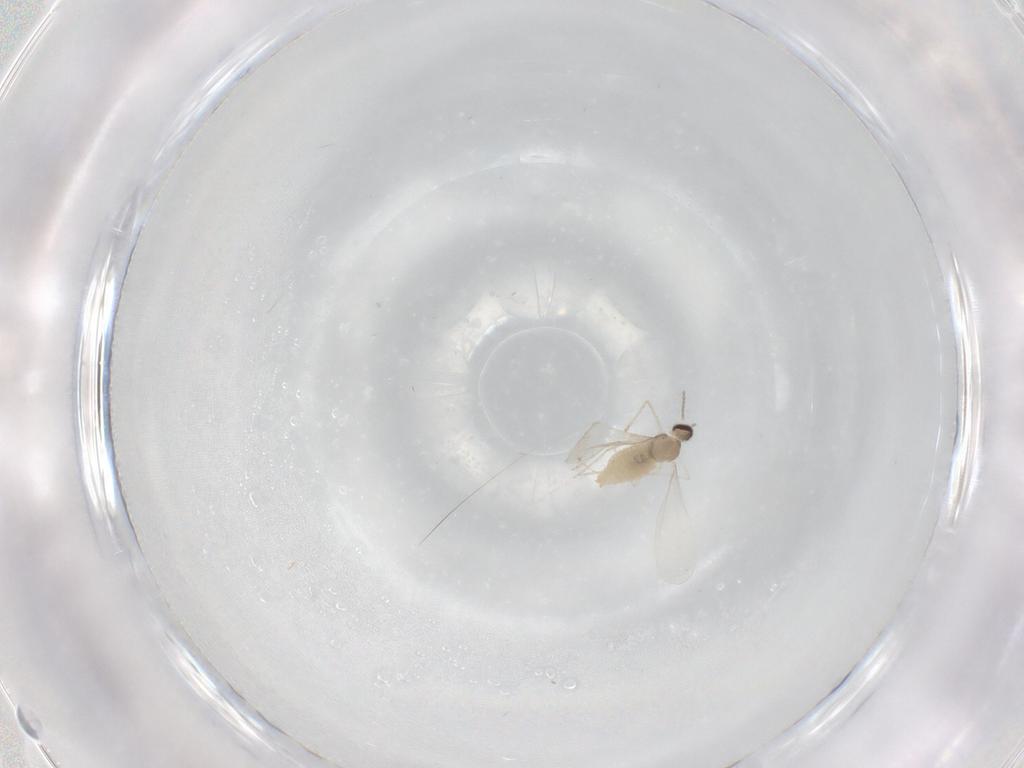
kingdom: Animalia
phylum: Arthropoda
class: Insecta
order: Diptera
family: Cecidomyiidae
